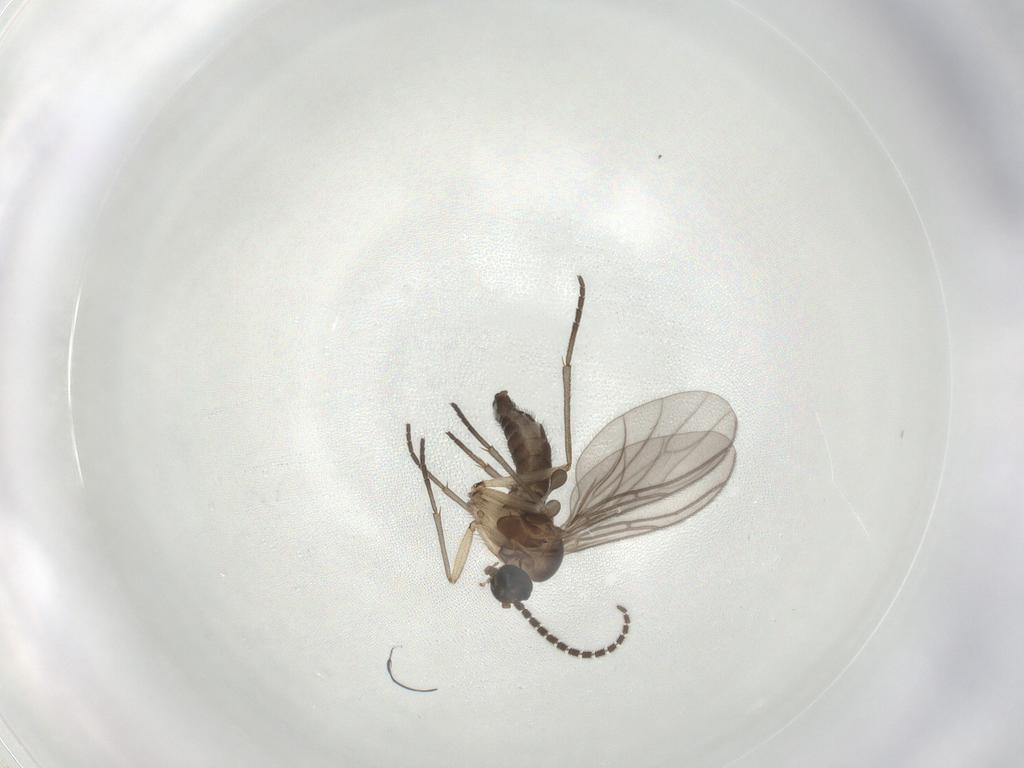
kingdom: Animalia
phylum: Arthropoda
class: Insecta
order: Diptera
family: Sciaridae
